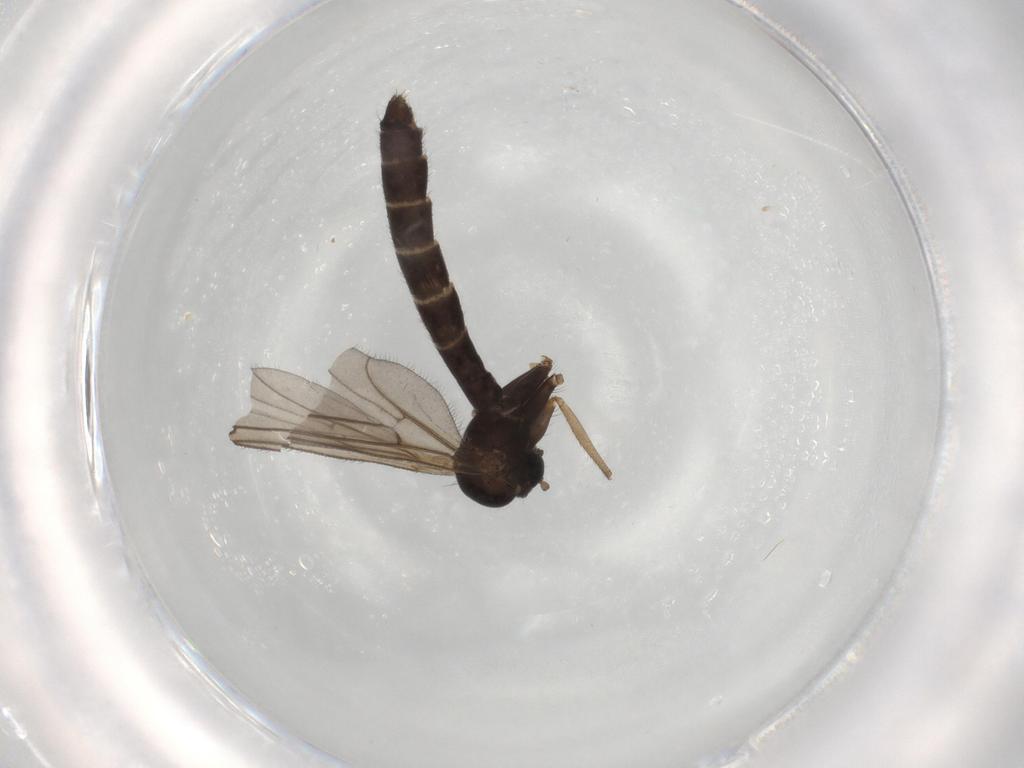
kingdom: Animalia
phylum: Arthropoda
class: Insecta
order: Diptera
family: Ditomyiidae
